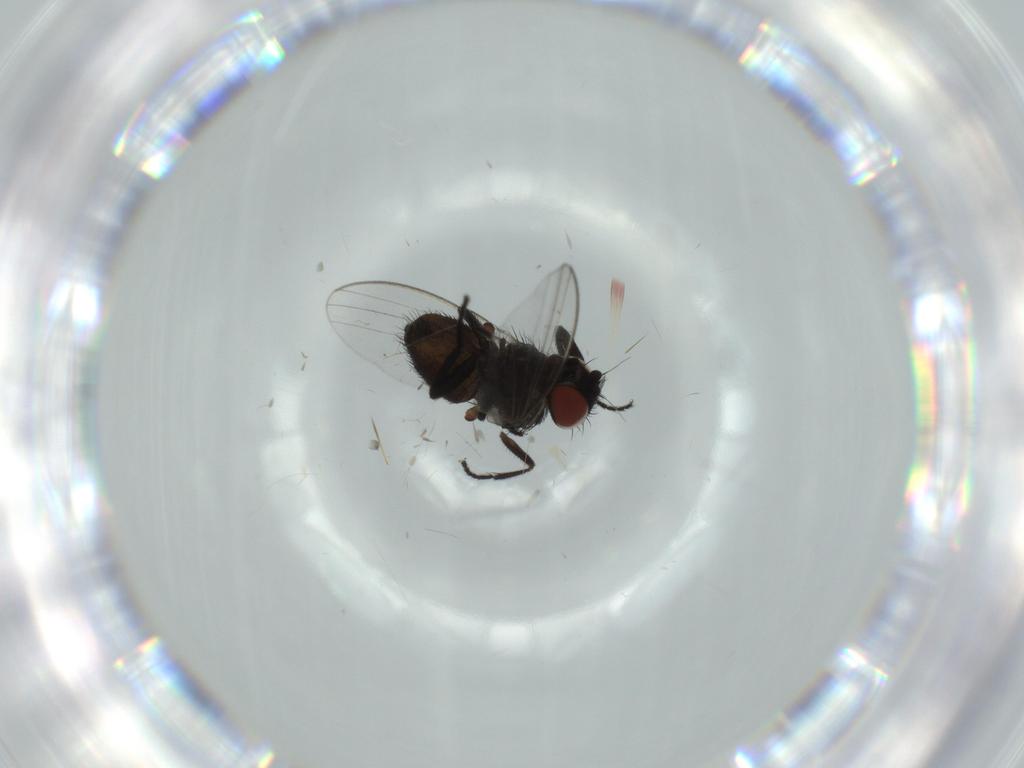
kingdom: Animalia
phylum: Arthropoda
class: Insecta
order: Diptera
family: Milichiidae
